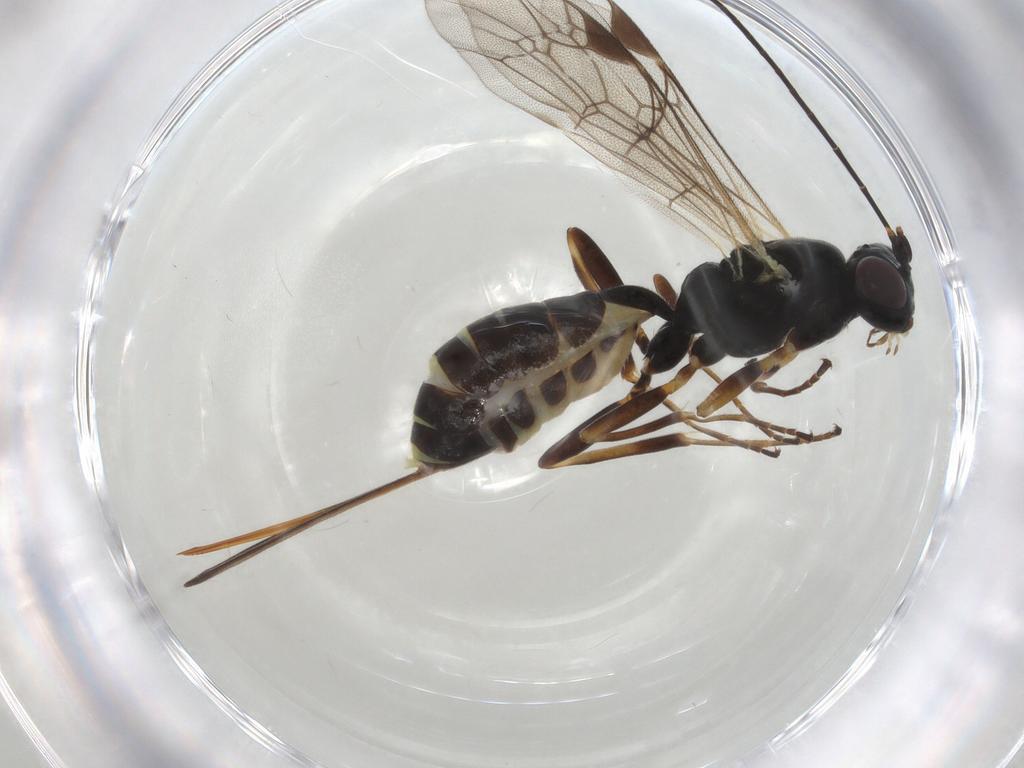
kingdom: Animalia
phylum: Arthropoda
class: Insecta
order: Hymenoptera
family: Ichneumonidae
